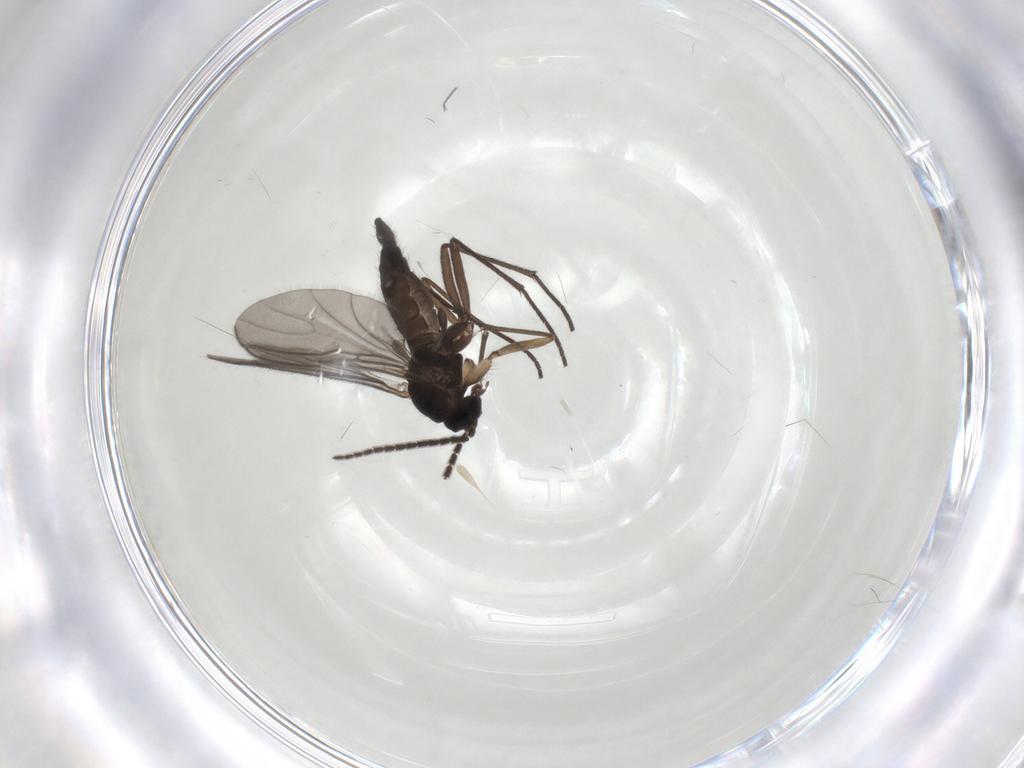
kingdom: Animalia
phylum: Arthropoda
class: Insecta
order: Diptera
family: Sciaridae
